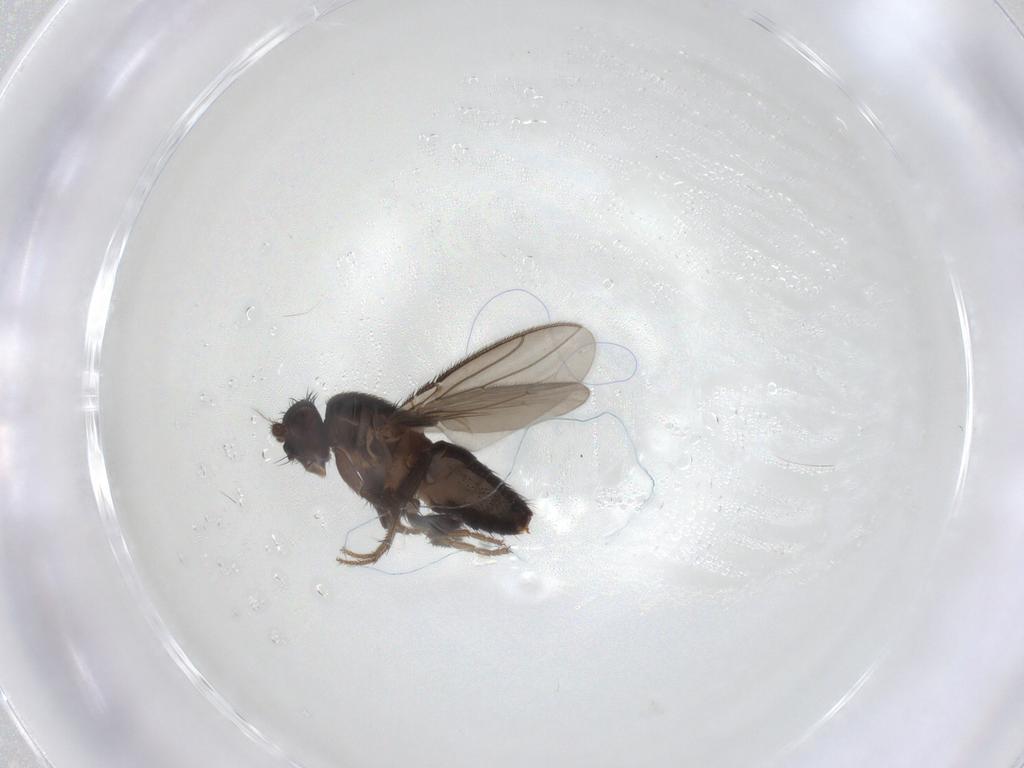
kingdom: Animalia
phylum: Arthropoda
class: Insecta
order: Diptera
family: Sphaeroceridae
